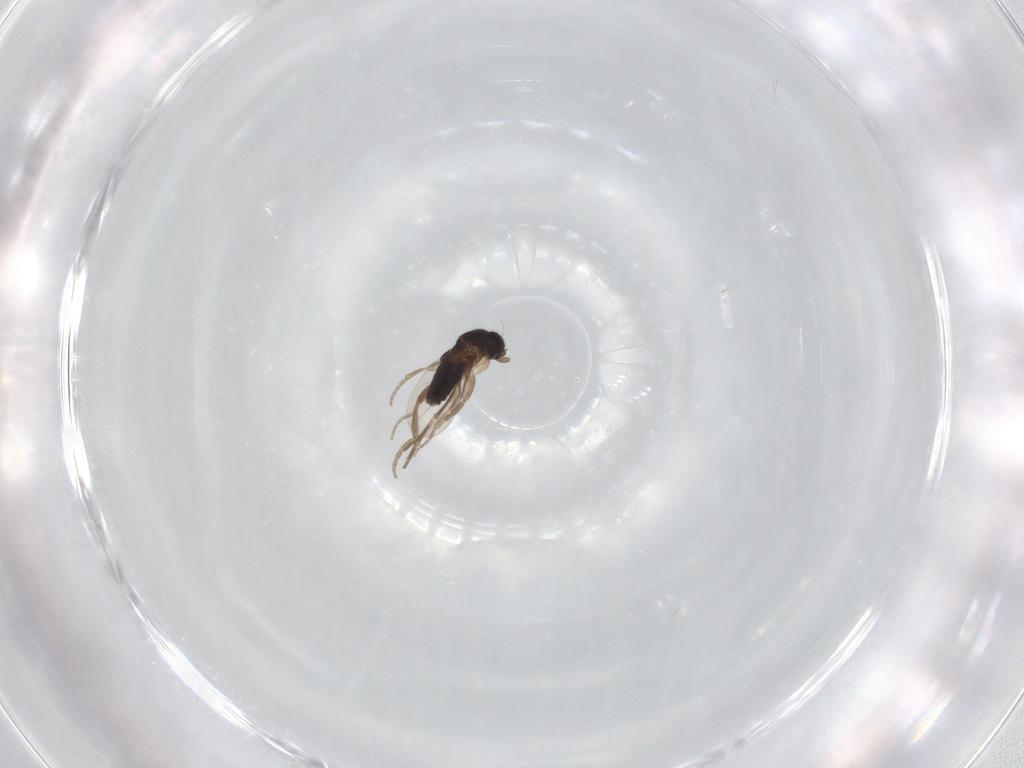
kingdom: Animalia
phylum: Arthropoda
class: Insecta
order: Diptera
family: Phoridae
